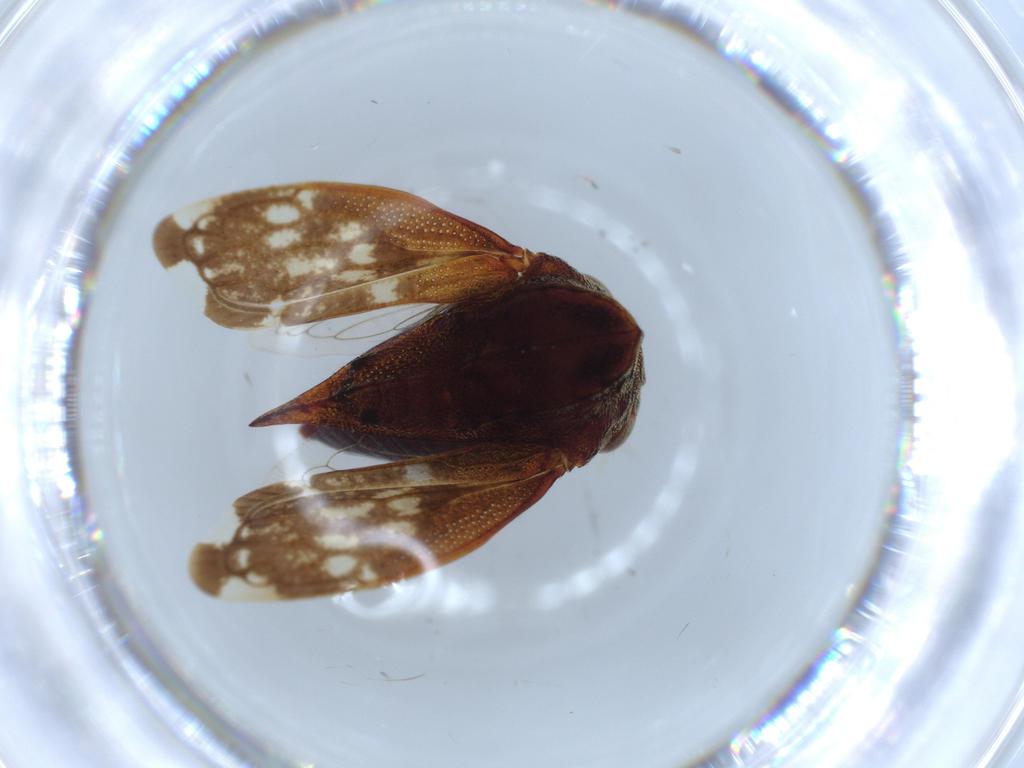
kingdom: Animalia
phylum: Arthropoda
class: Insecta
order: Hemiptera
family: Membracidae
